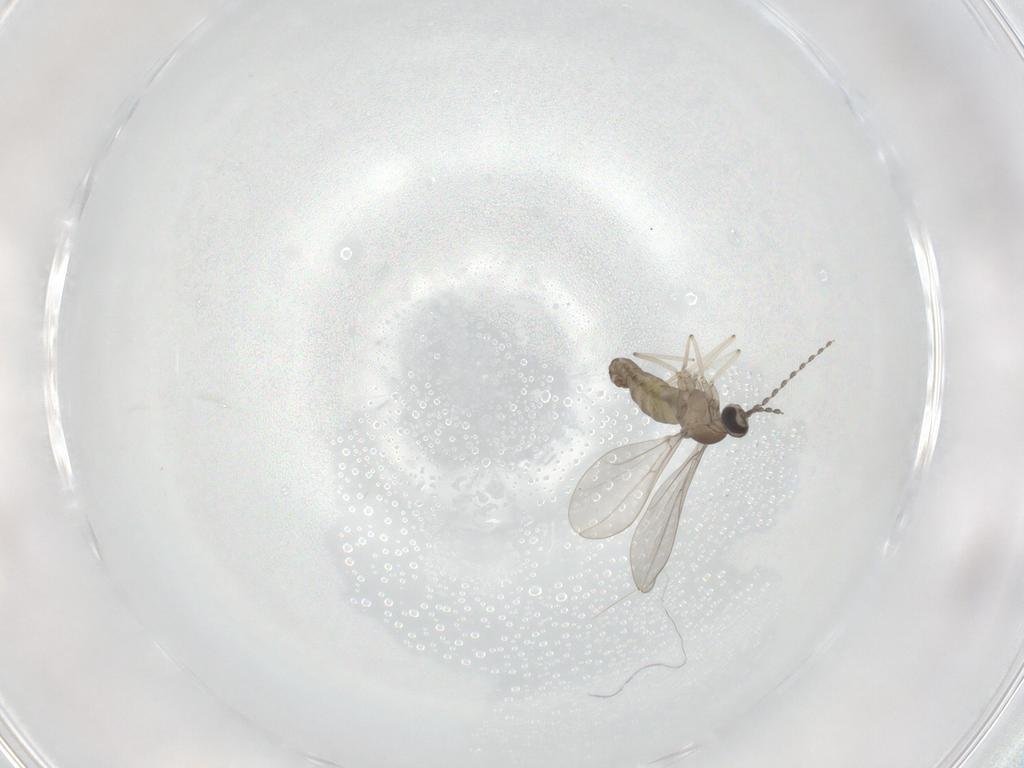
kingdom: Animalia
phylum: Arthropoda
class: Insecta
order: Diptera
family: Cecidomyiidae
